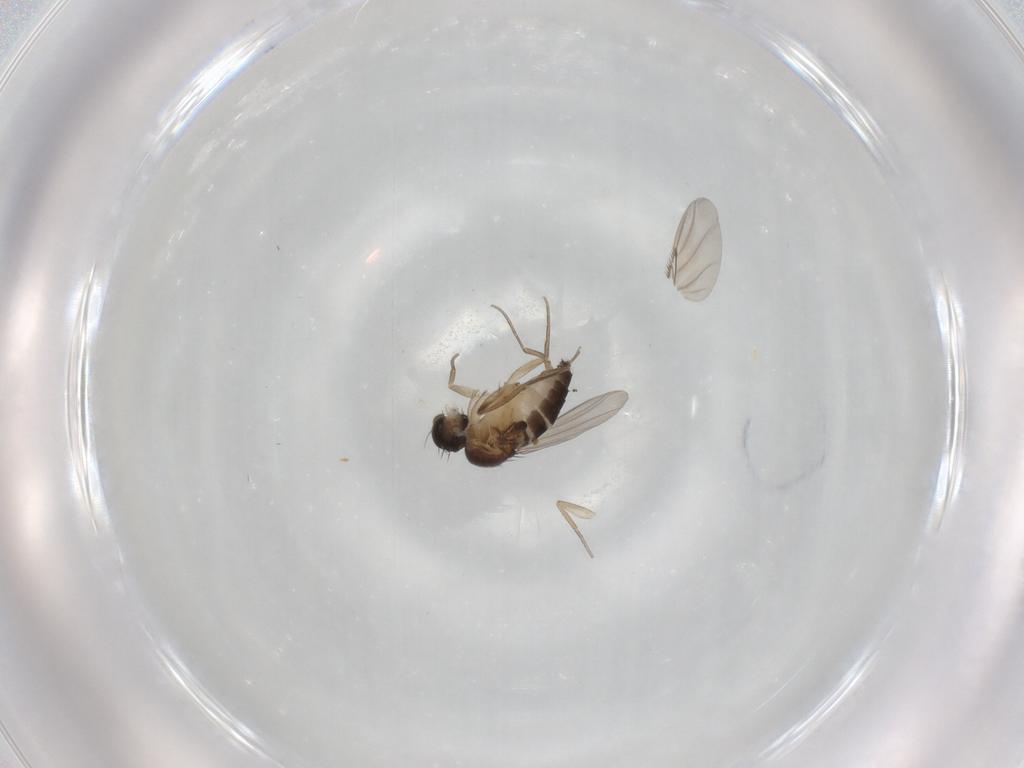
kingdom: Animalia
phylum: Arthropoda
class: Insecta
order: Diptera
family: Phoridae
